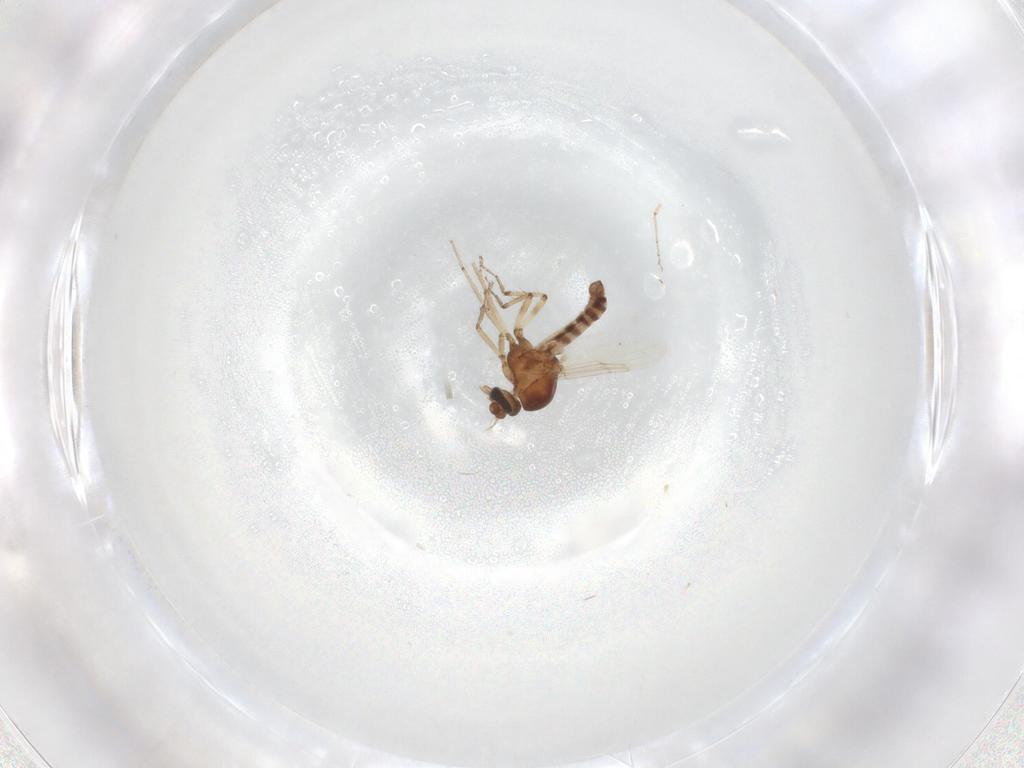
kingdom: Animalia
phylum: Arthropoda
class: Insecta
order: Diptera
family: Ceratopogonidae
